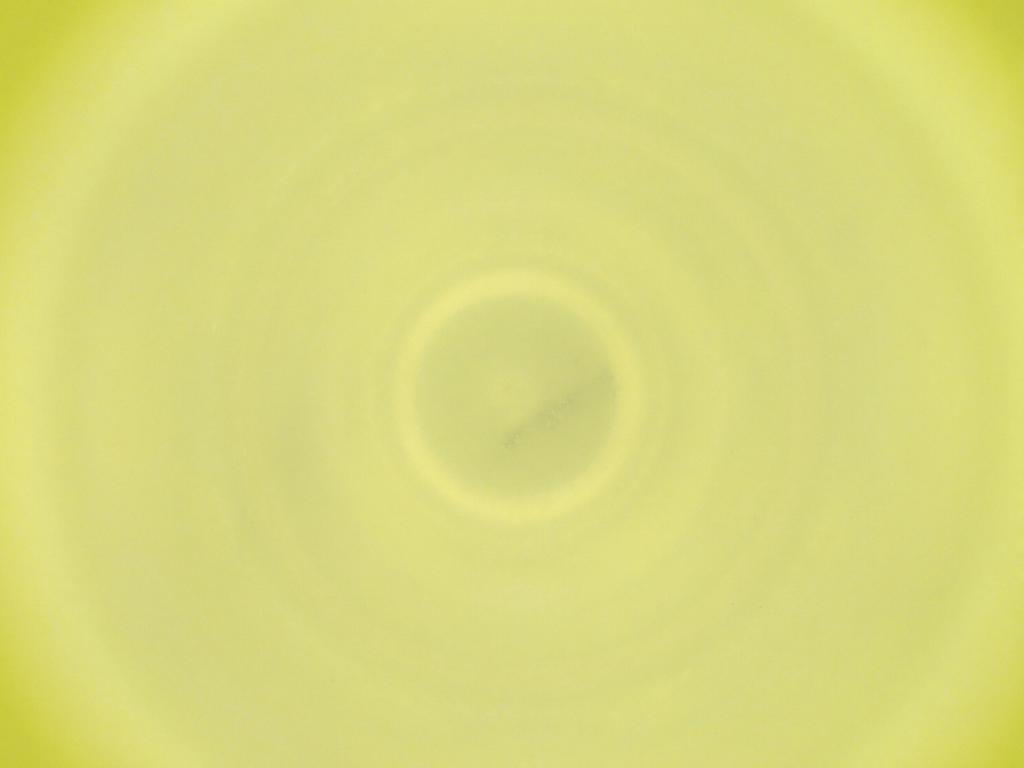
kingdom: Animalia
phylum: Arthropoda
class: Insecta
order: Diptera
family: Cecidomyiidae
